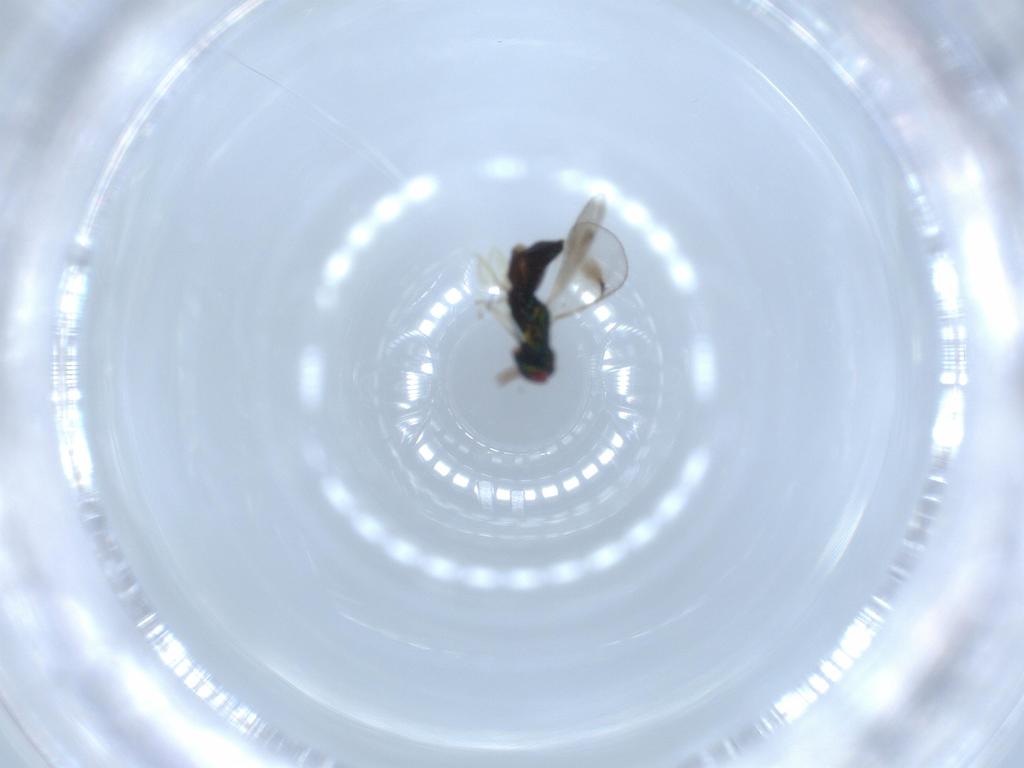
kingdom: Animalia
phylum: Arthropoda
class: Insecta
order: Hymenoptera
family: Eulophidae
